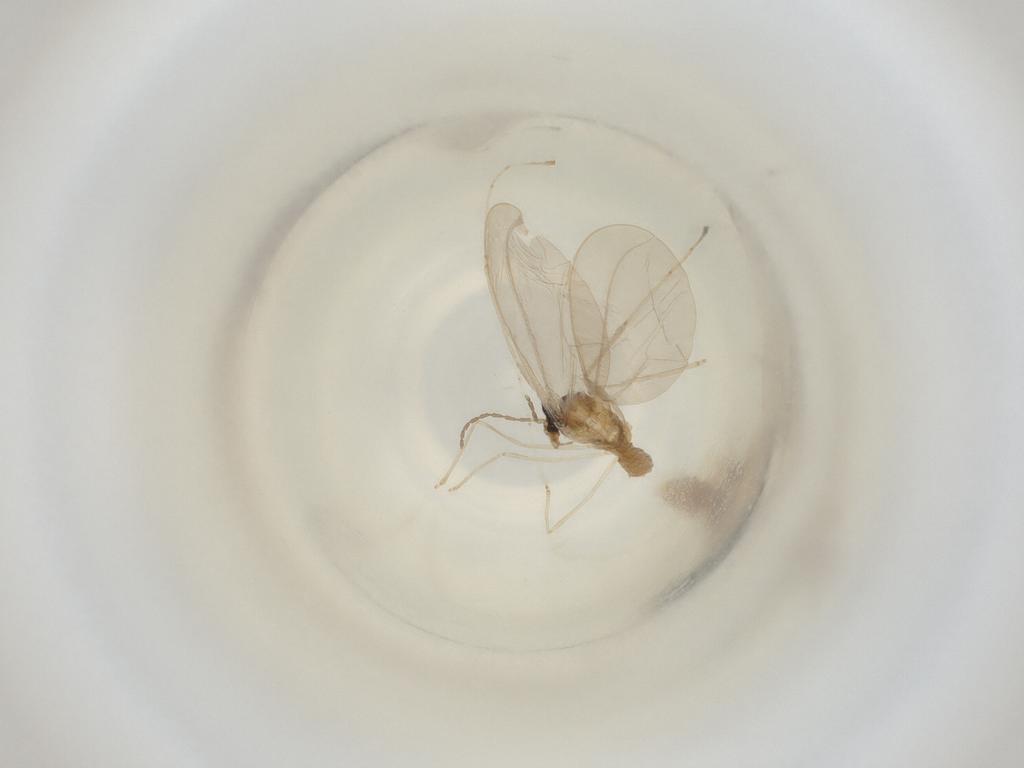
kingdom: Animalia
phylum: Arthropoda
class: Insecta
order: Diptera
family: Cecidomyiidae
